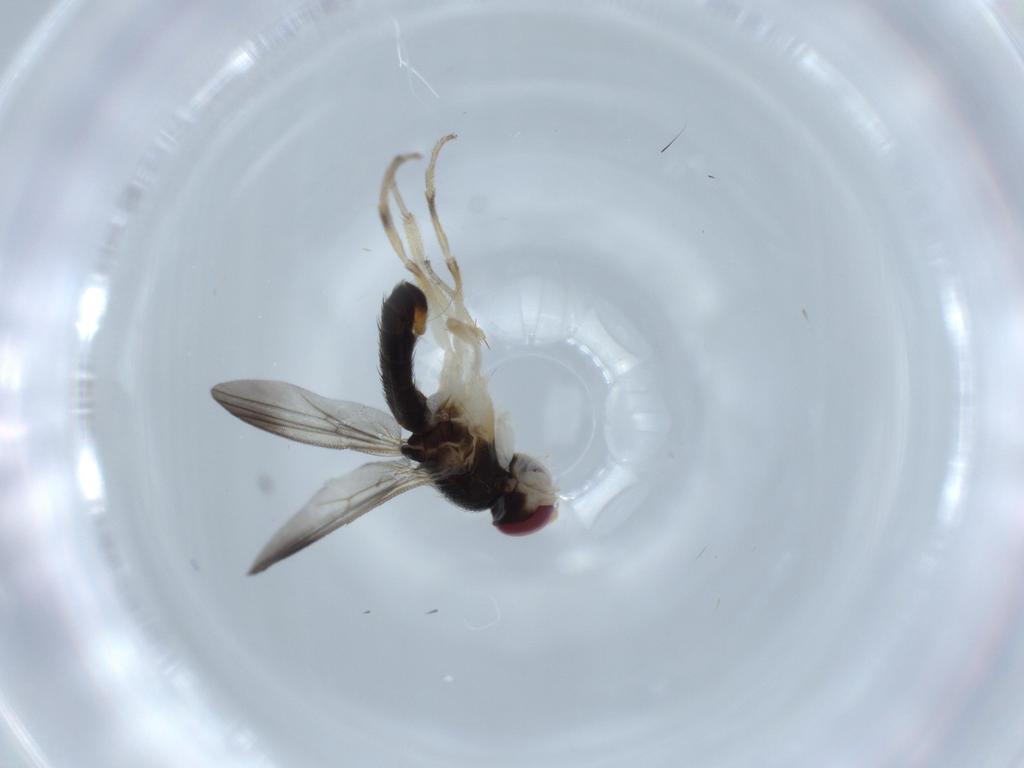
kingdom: Animalia
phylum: Arthropoda
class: Insecta
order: Diptera
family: Clusiidae
